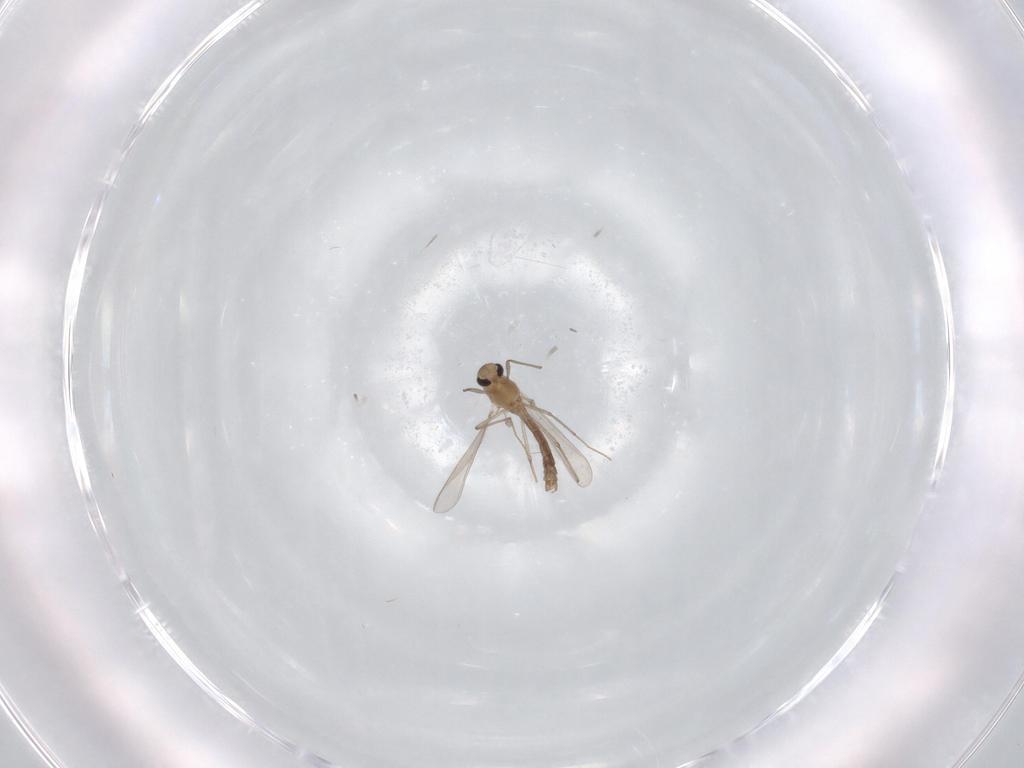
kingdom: Animalia
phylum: Arthropoda
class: Insecta
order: Diptera
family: Chironomidae
